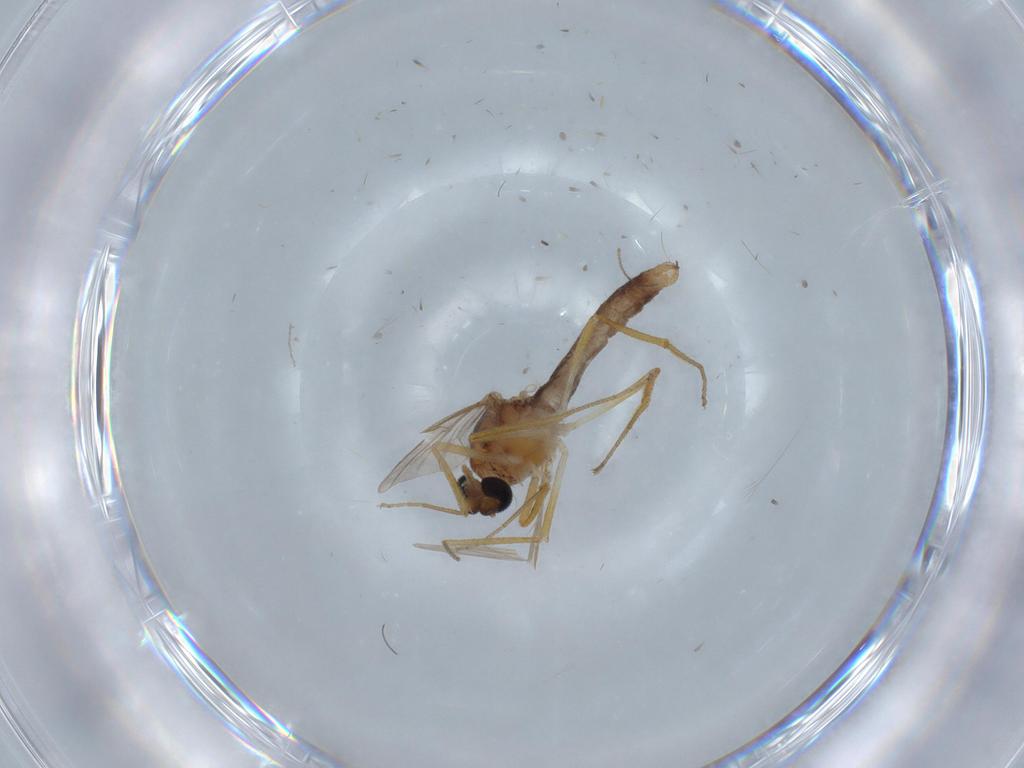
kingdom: Animalia
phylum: Arthropoda
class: Insecta
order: Diptera
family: Ceratopogonidae
